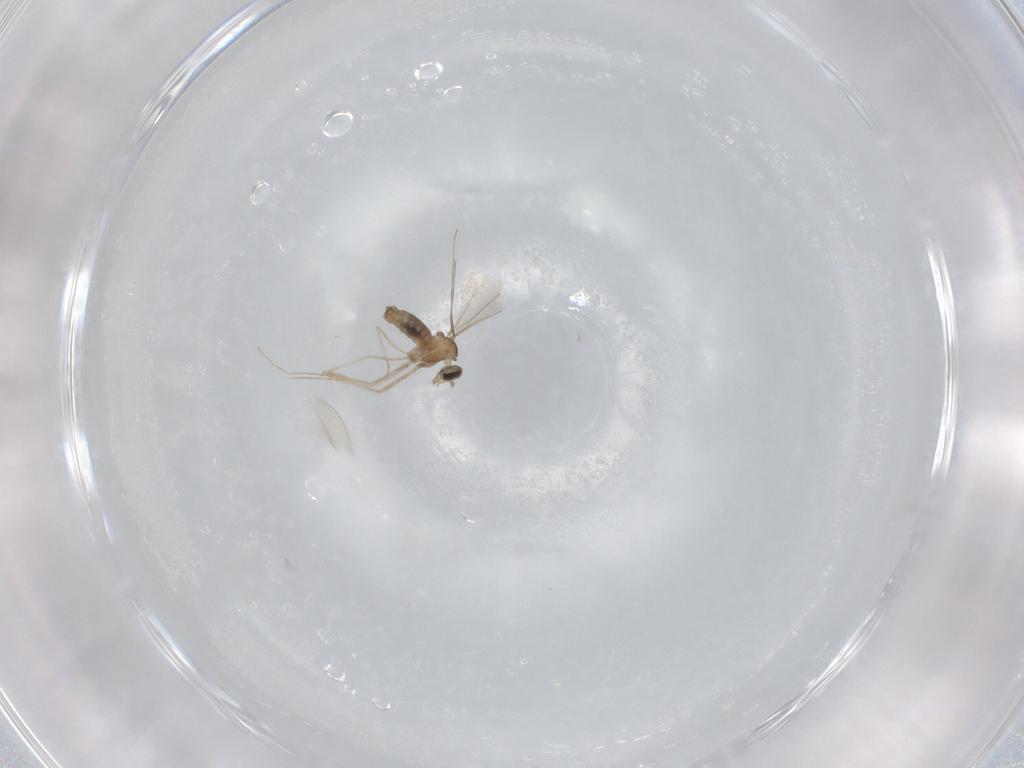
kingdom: Animalia
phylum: Arthropoda
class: Insecta
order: Diptera
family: Cecidomyiidae
